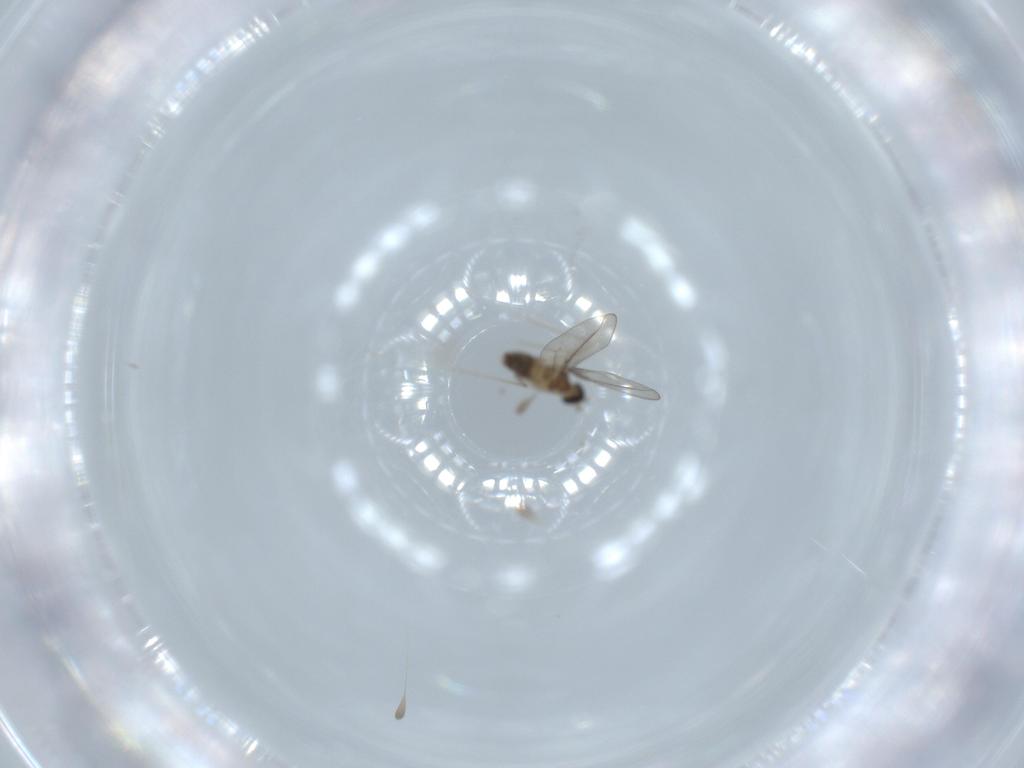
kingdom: Animalia
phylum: Arthropoda
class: Insecta
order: Diptera
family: Cecidomyiidae
